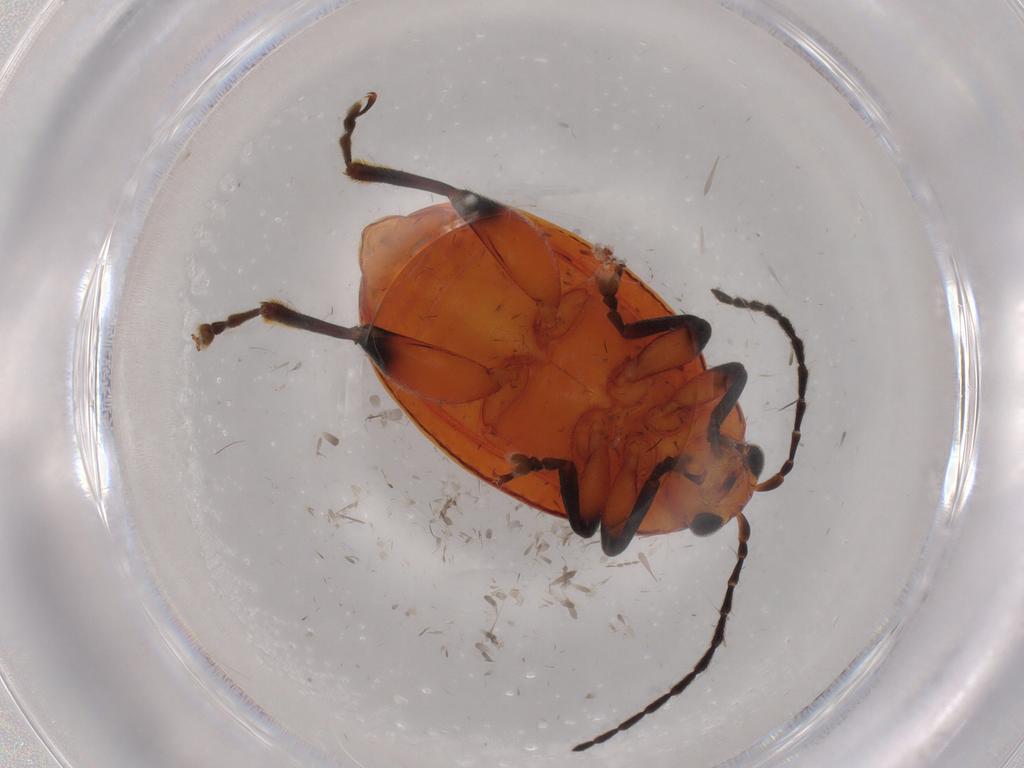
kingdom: Animalia
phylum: Arthropoda
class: Insecta
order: Coleoptera
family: Chrysomelidae
